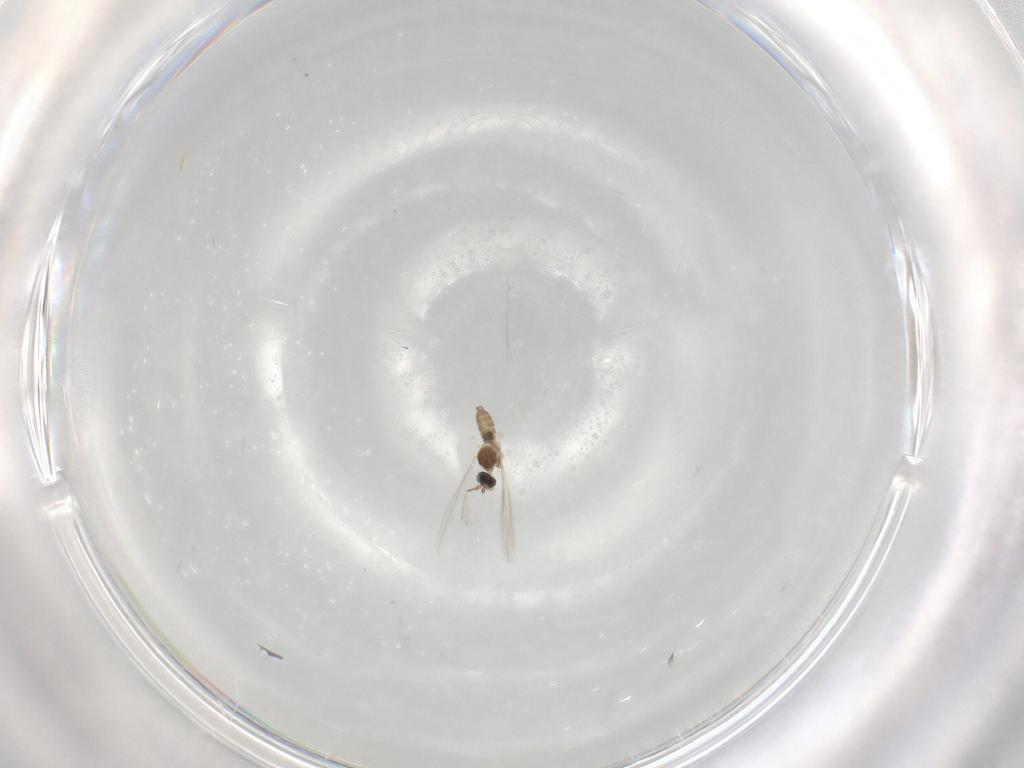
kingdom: Animalia
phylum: Arthropoda
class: Insecta
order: Diptera
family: Cecidomyiidae
